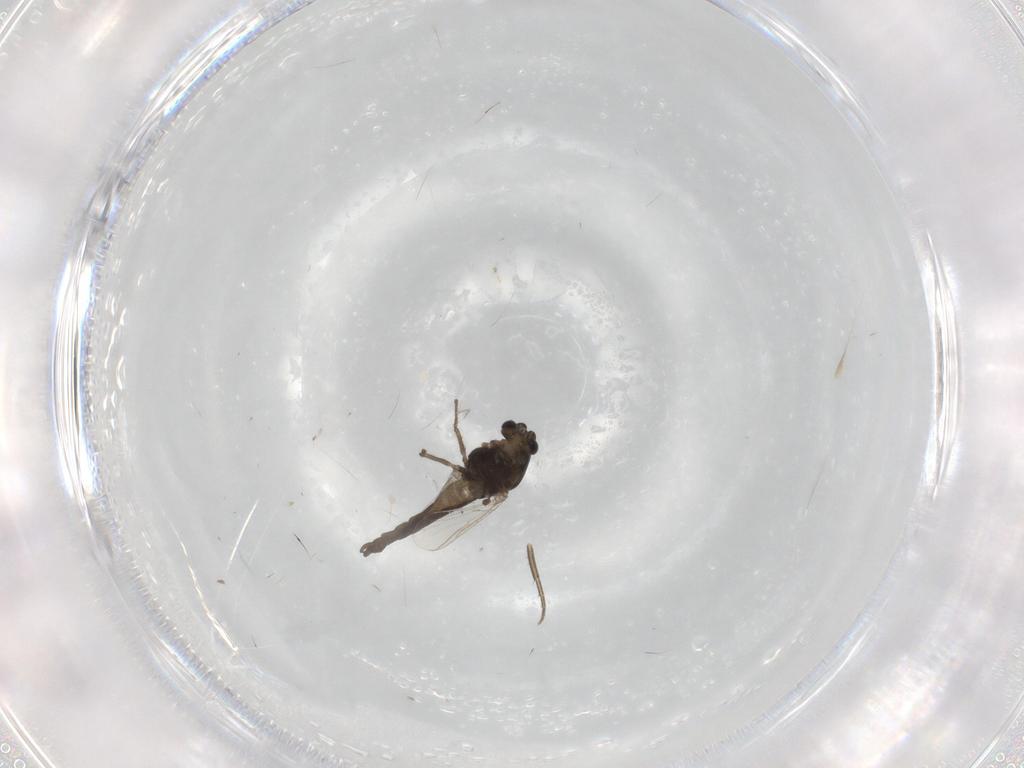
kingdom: Animalia
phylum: Arthropoda
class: Insecta
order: Diptera
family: Chironomidae
